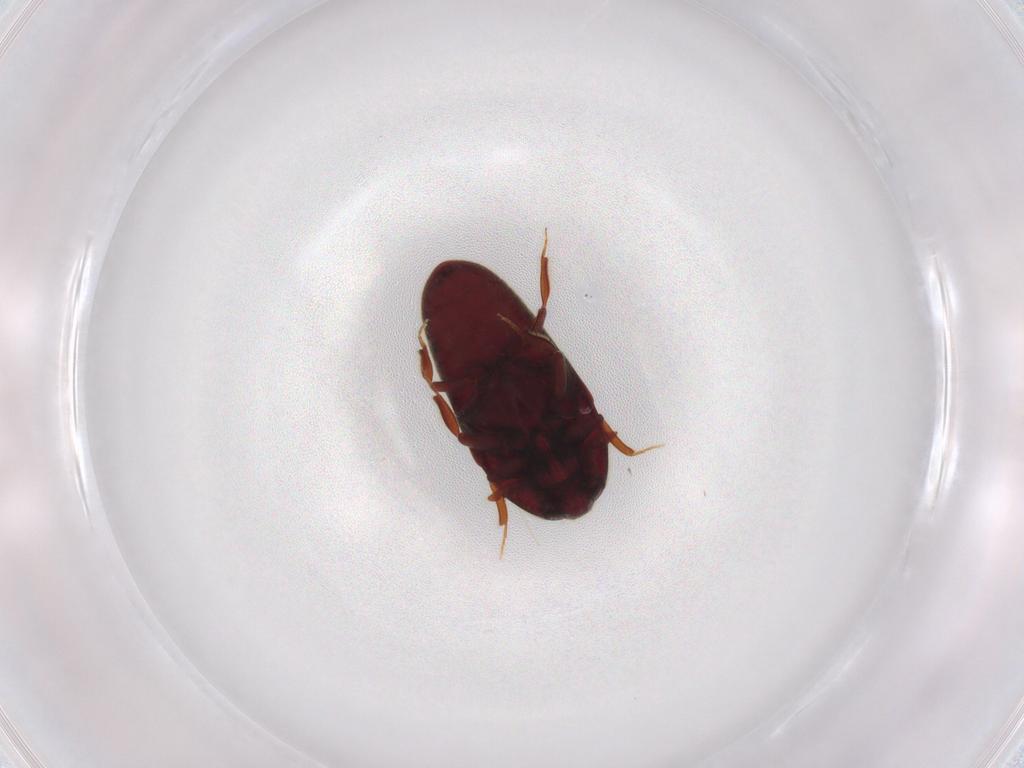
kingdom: Animalia
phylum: Arthropoda
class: Insecta
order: Coleoptera
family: Throscidae
